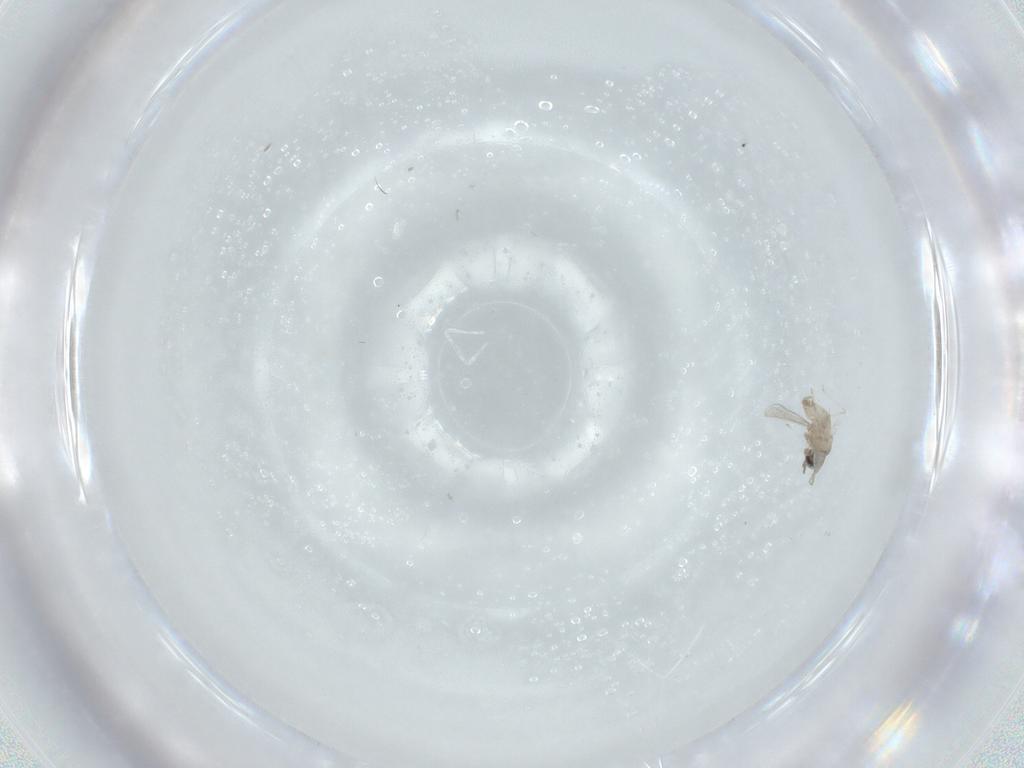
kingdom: Animalia
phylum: Arthropoda
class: Insecta
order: Diptera
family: Cecidomyiidae
